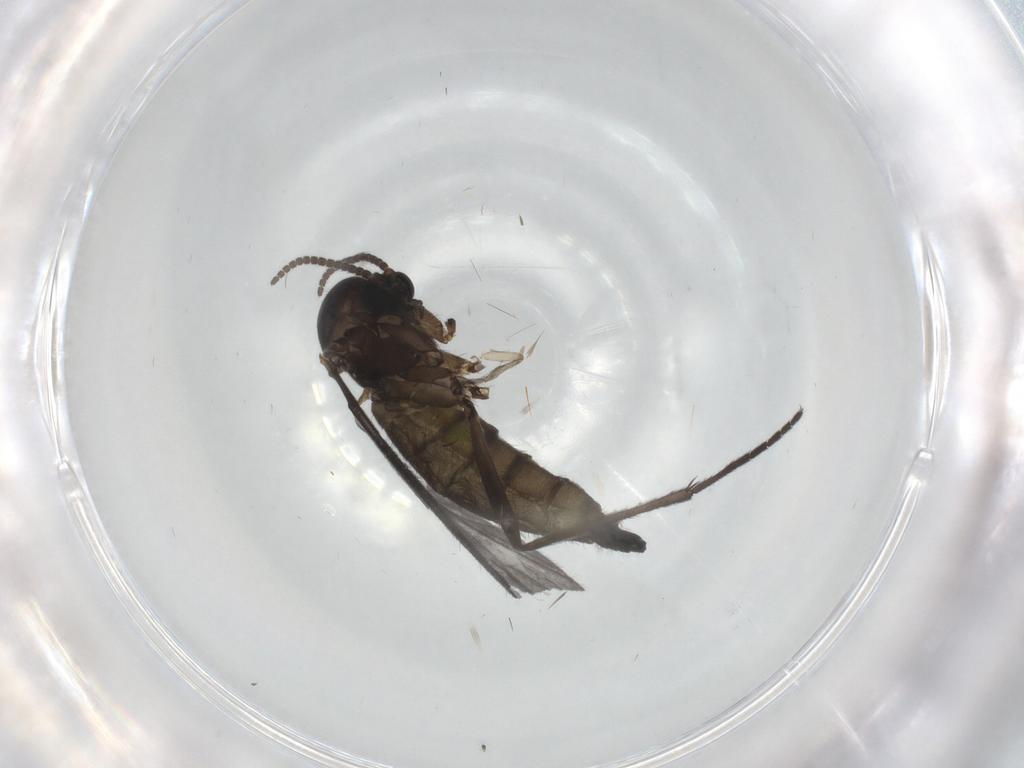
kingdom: Animalia
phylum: Arthropoda
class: Insecta
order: Diptera
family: Sciaridae
